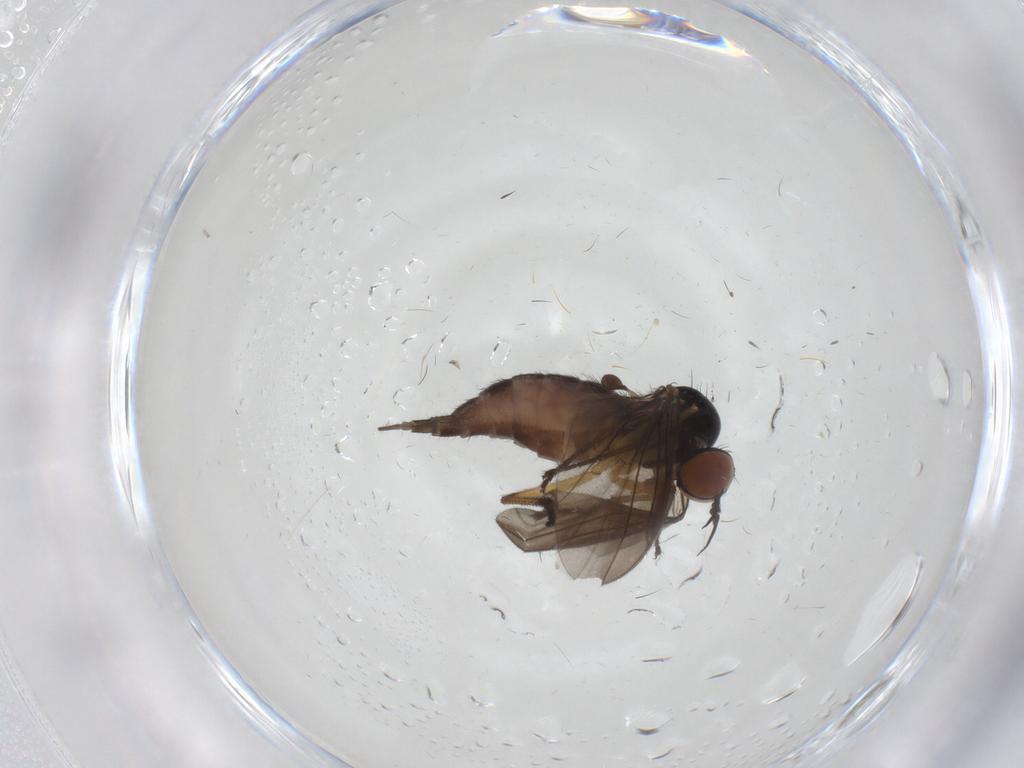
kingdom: Animalia
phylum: Arthropoda
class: Insecta
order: Diptera
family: Empididae
